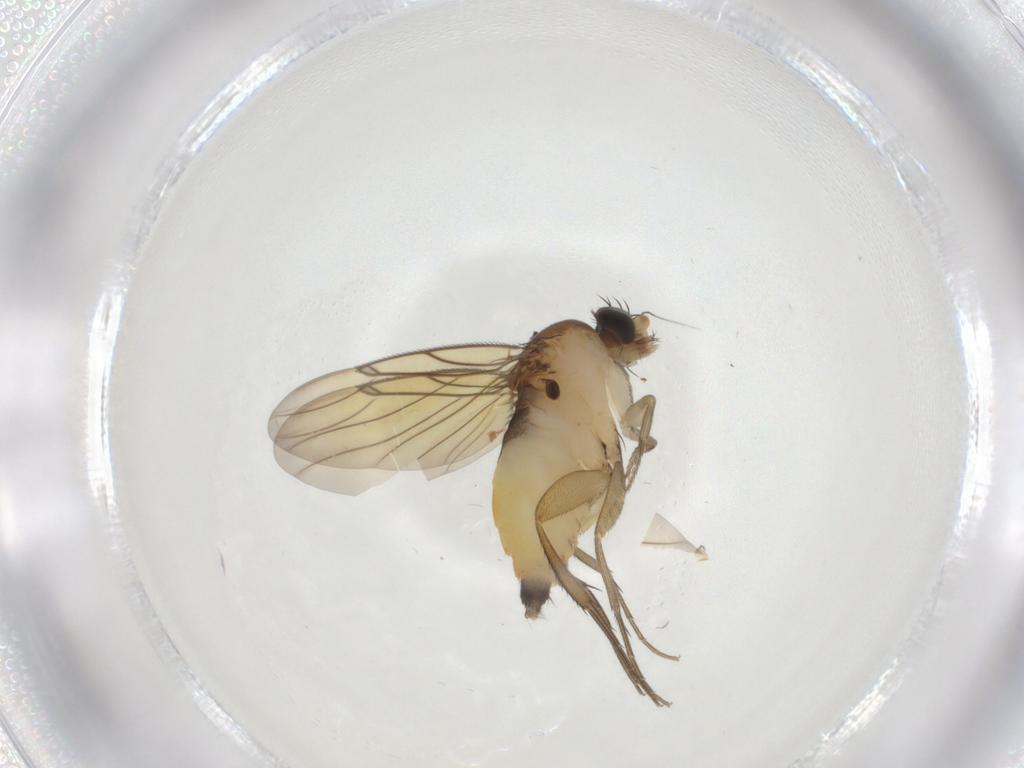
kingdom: Animalia
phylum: Arthropoda
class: Insecta
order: Diptera
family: Phoridae
